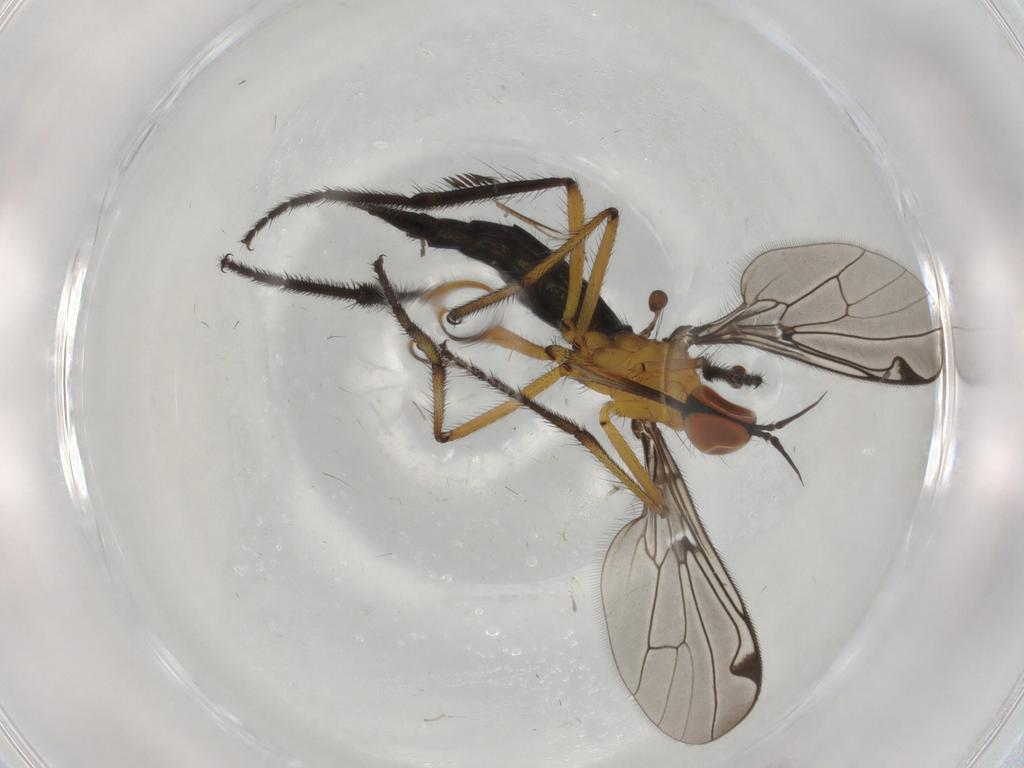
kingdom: Animalia
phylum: Arthropoda
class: Insecta
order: Diptera
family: Empididae
